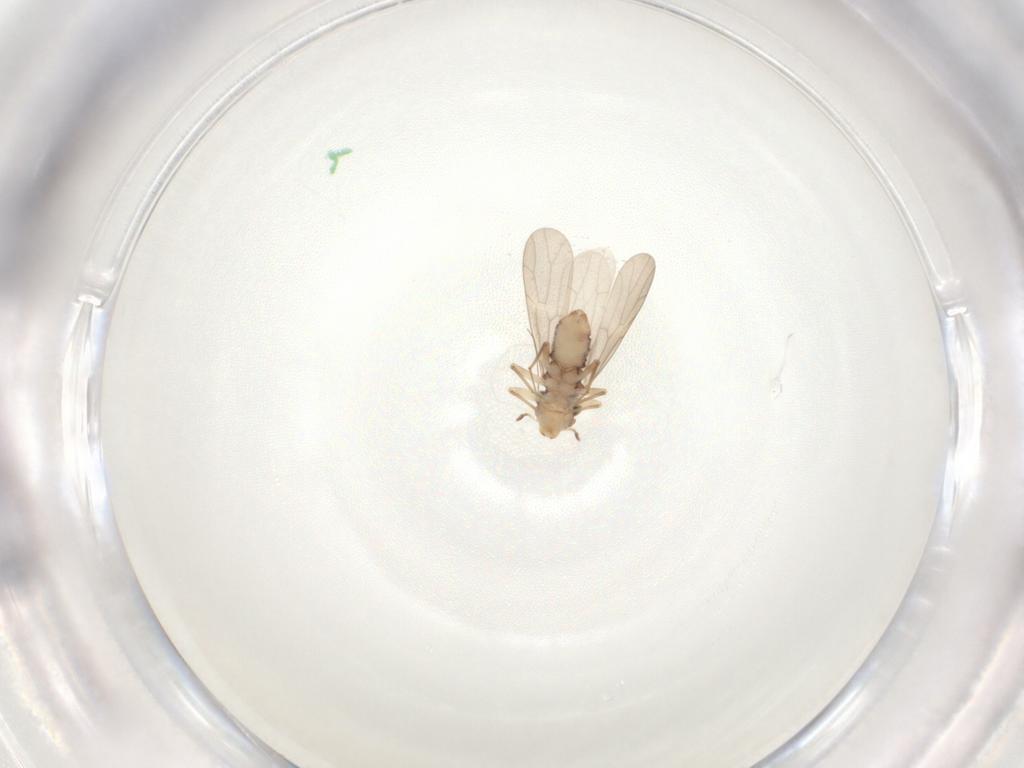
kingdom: Animalia
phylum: Arthropoda
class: Insecta
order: Psocodea
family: Lepidopsocidae
